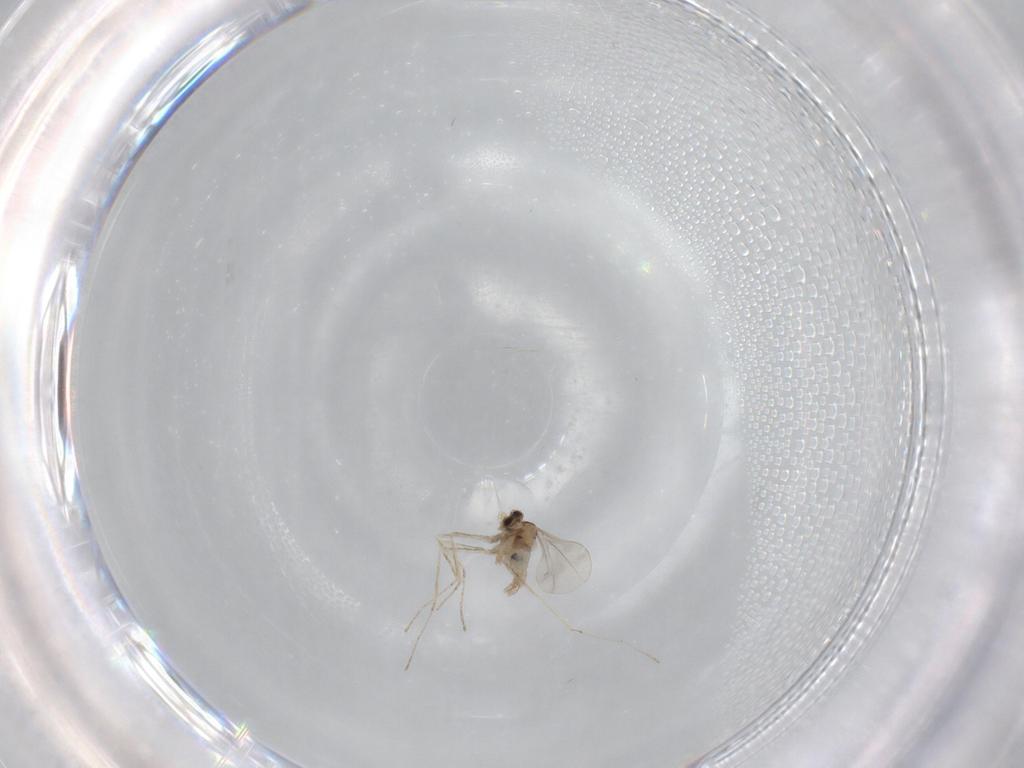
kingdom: Animalia
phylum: Arthropoda
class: Insecta
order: Diptera
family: Cecidomyiidae
